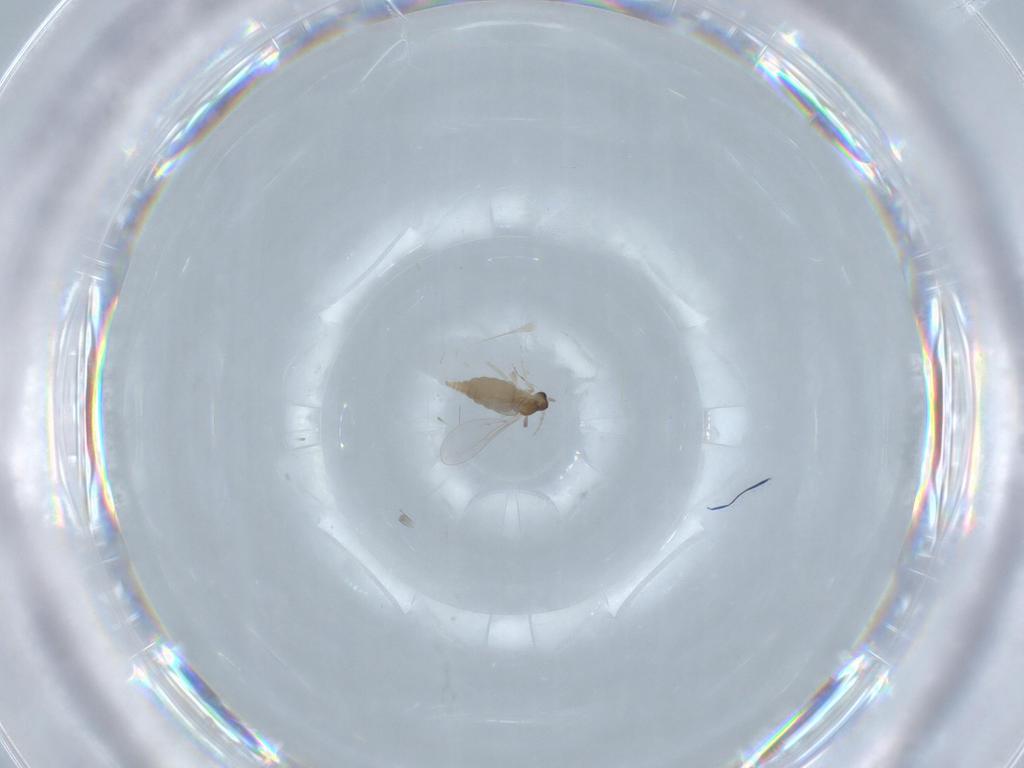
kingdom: Animalia
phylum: Arthropoda
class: Insecta
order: Diptera
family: Cecidomyiidae
